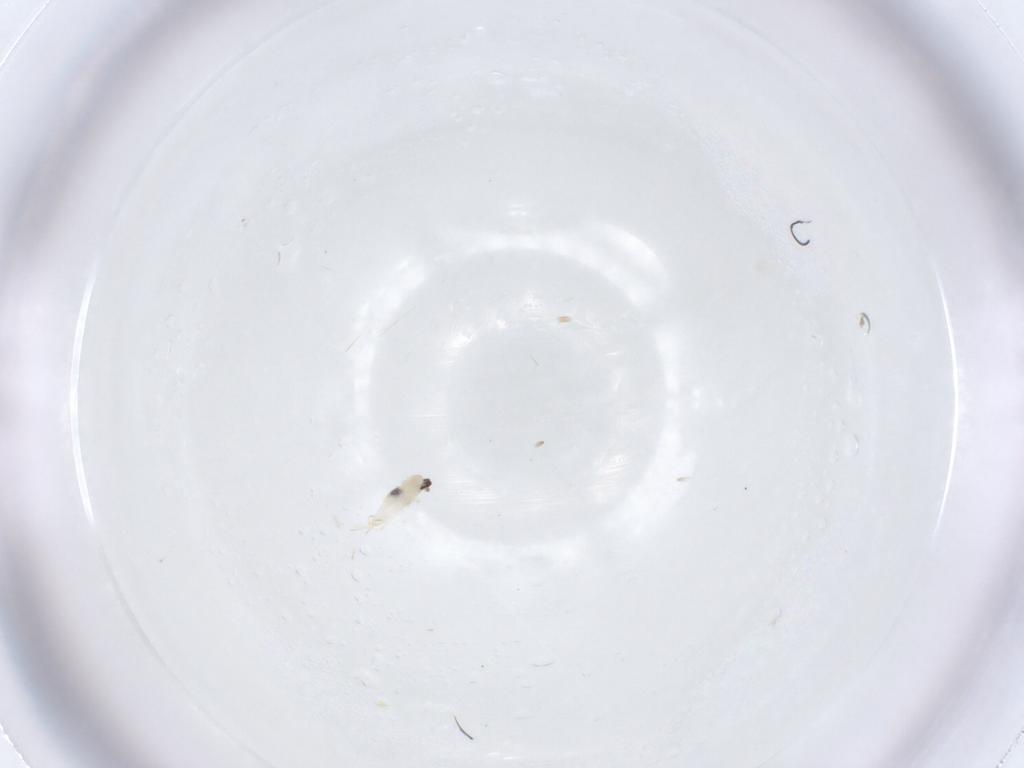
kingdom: Animalia
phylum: Arthropoda
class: Insecta
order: Diptera
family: Cecidomyiidae
